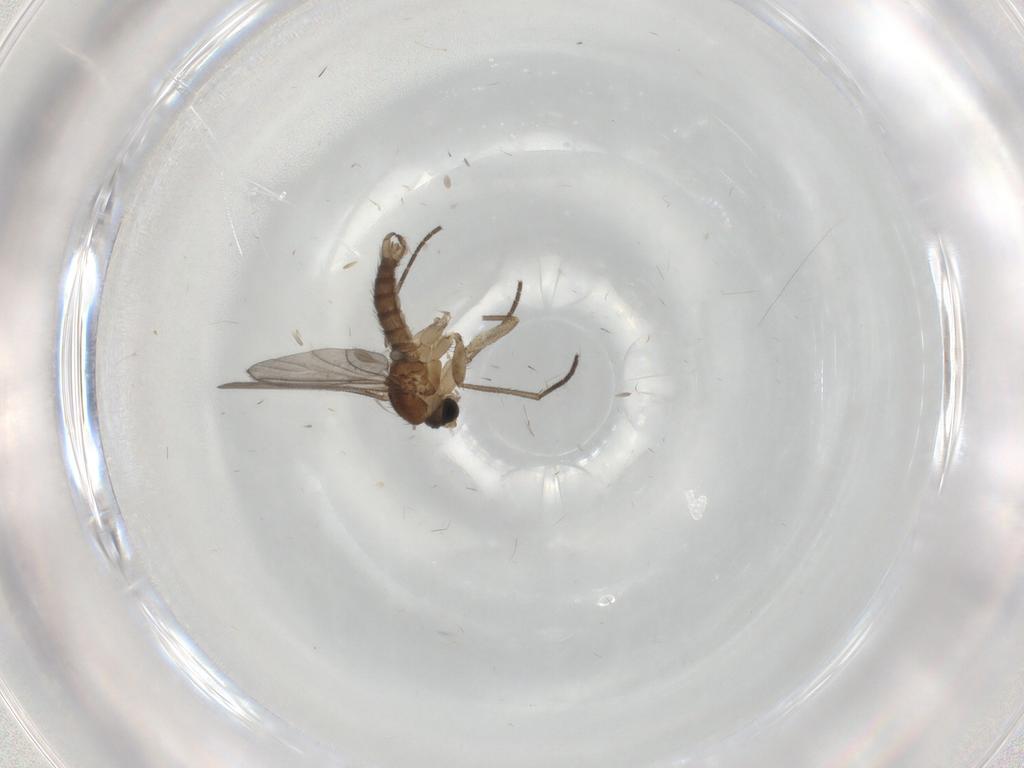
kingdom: Animalia
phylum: Arthropoda
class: Insecta
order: Diptera
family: Sciaridae
